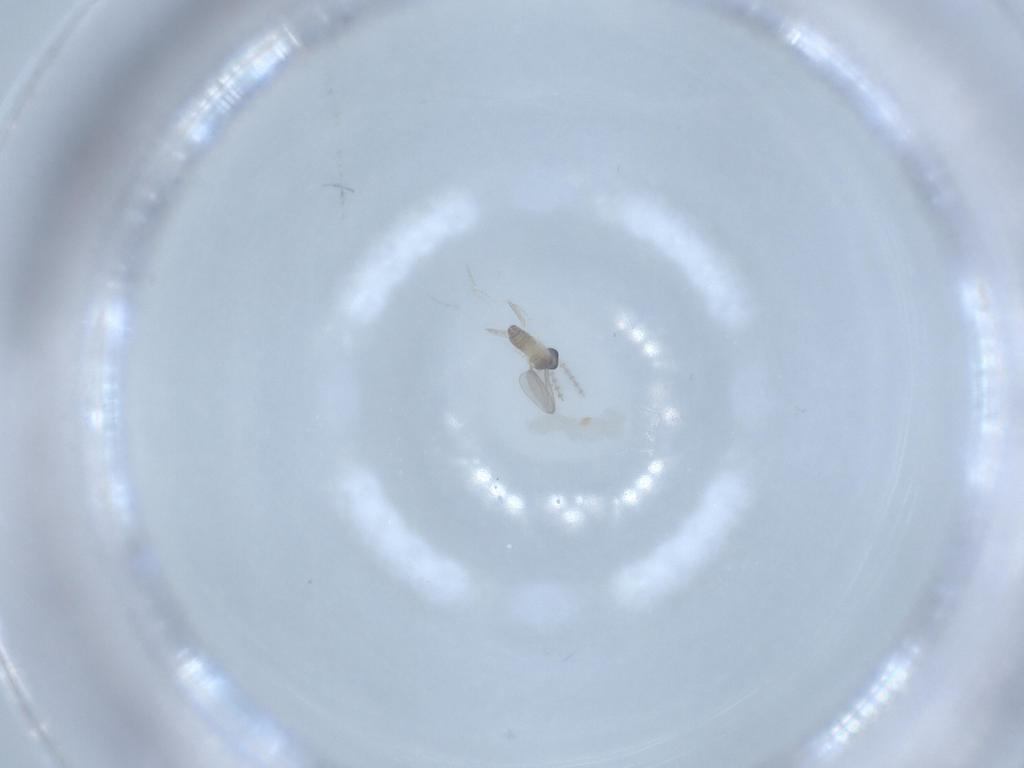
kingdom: Animalia
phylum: Arthropoda
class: Insecta
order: Diptera
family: Cecidomyiidae
